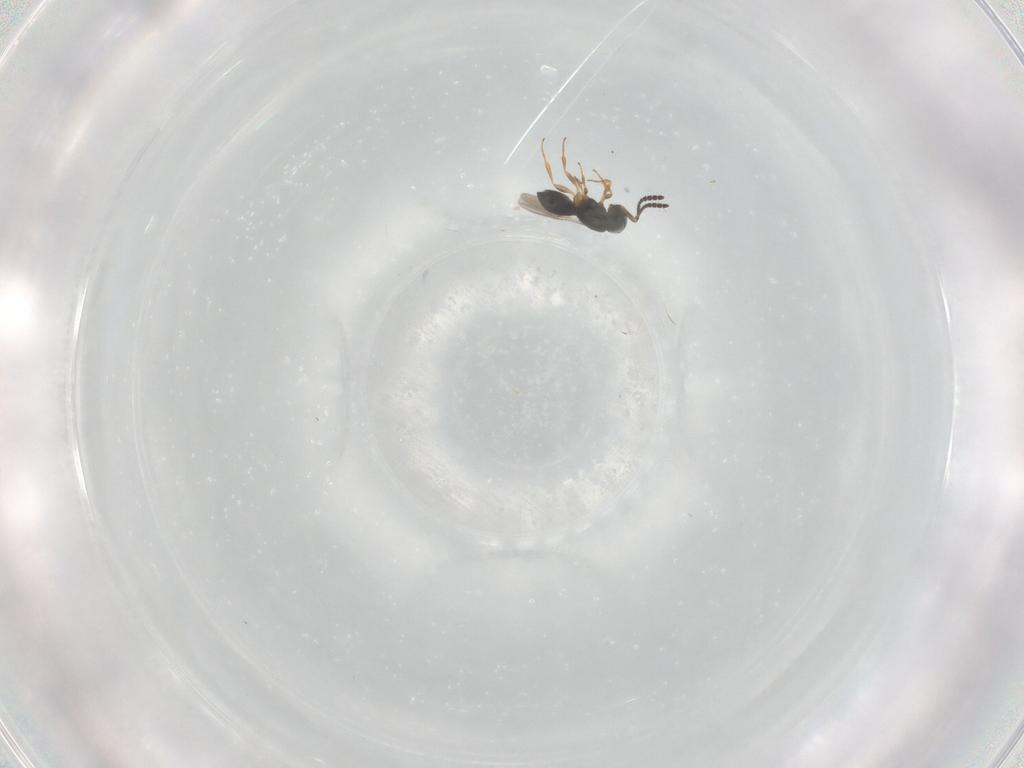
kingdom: Animalia
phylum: Arthropoda
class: Insecta
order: Hymenoptera
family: Scelionidae
